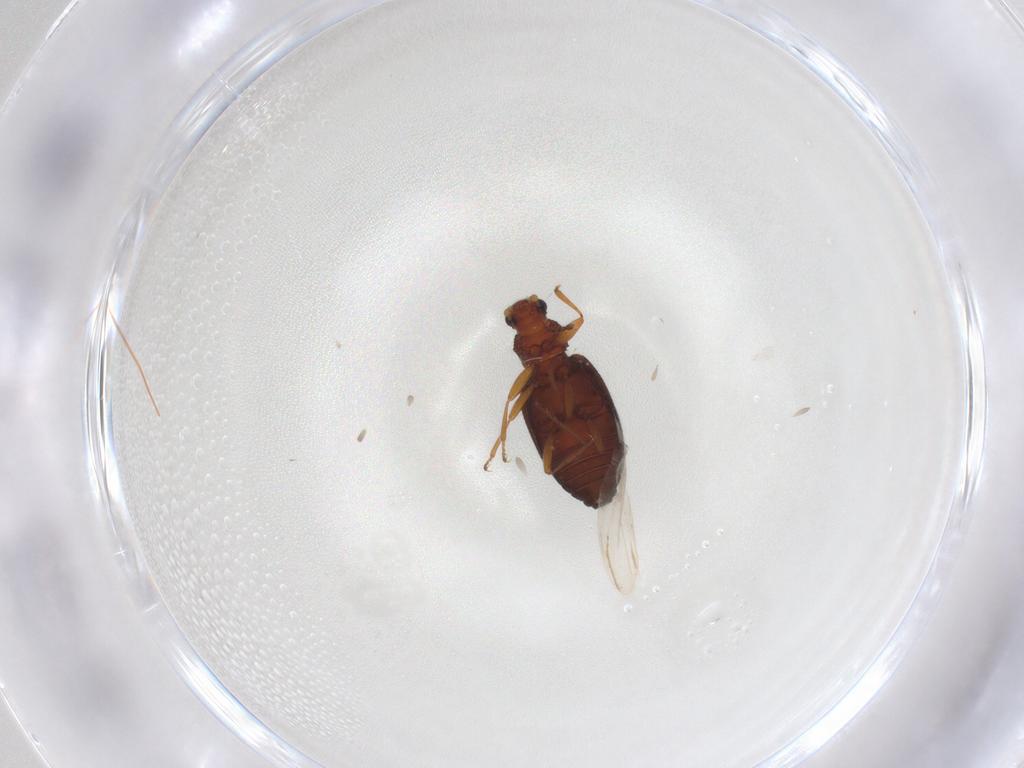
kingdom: Animalia
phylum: Arthropoda
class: Insecta
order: Coleoptera
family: Latridiidae
